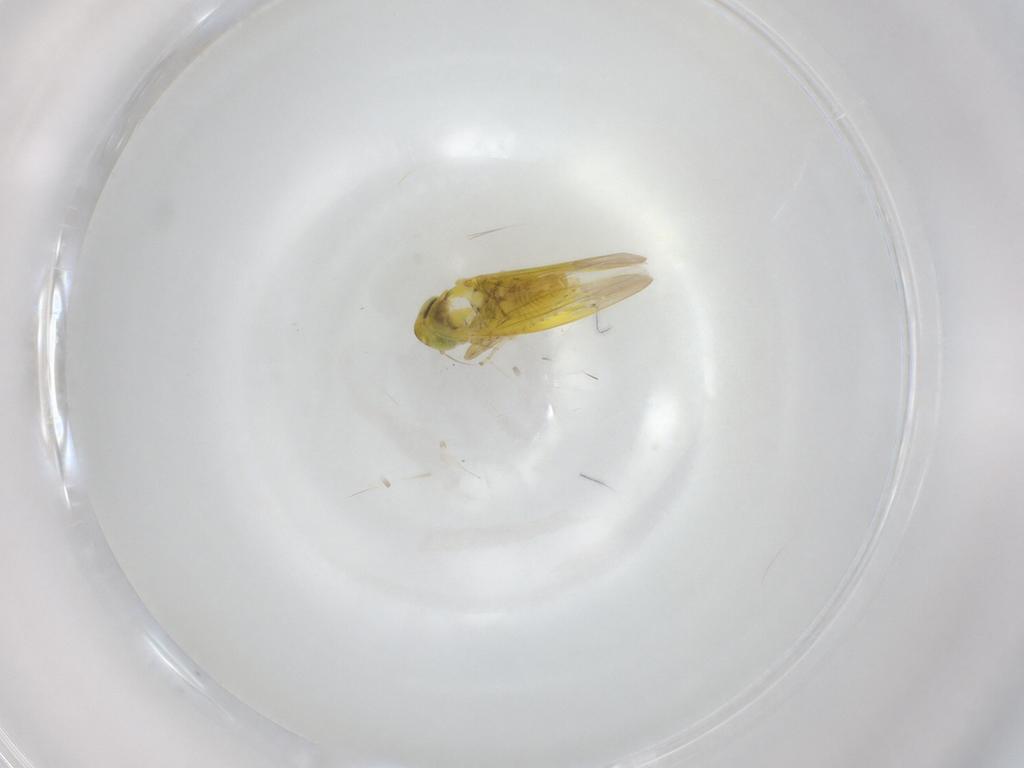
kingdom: Animalia
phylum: Arthropoda
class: Insecta
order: Hemiptera
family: Cicadellidae
